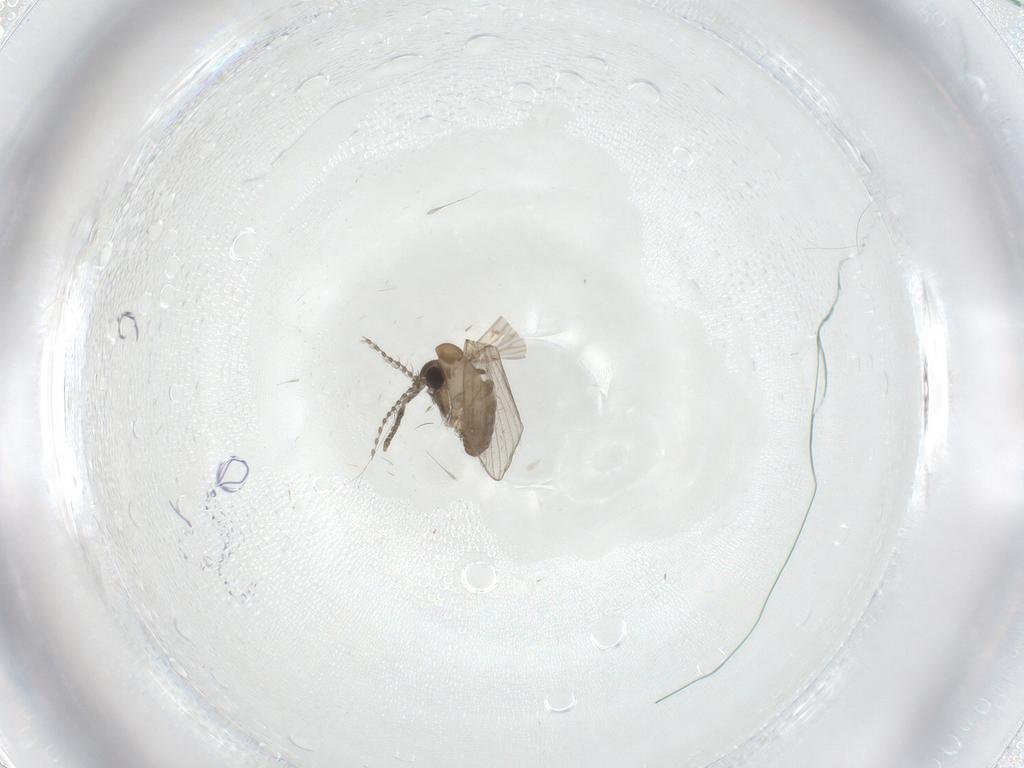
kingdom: Animalia
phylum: Arthropoda
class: Insecta
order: Diptera
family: Psychodidae
